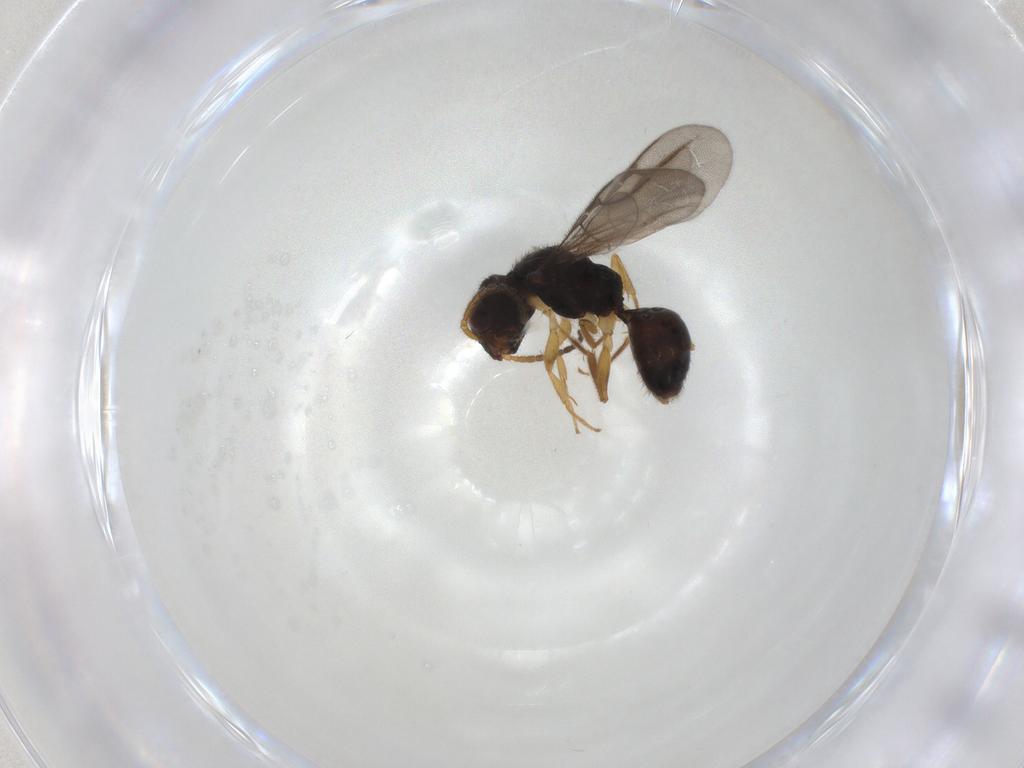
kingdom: Animalia
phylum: Arthropoda
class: Insecta
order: Hymenoptera
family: Bethylidae
